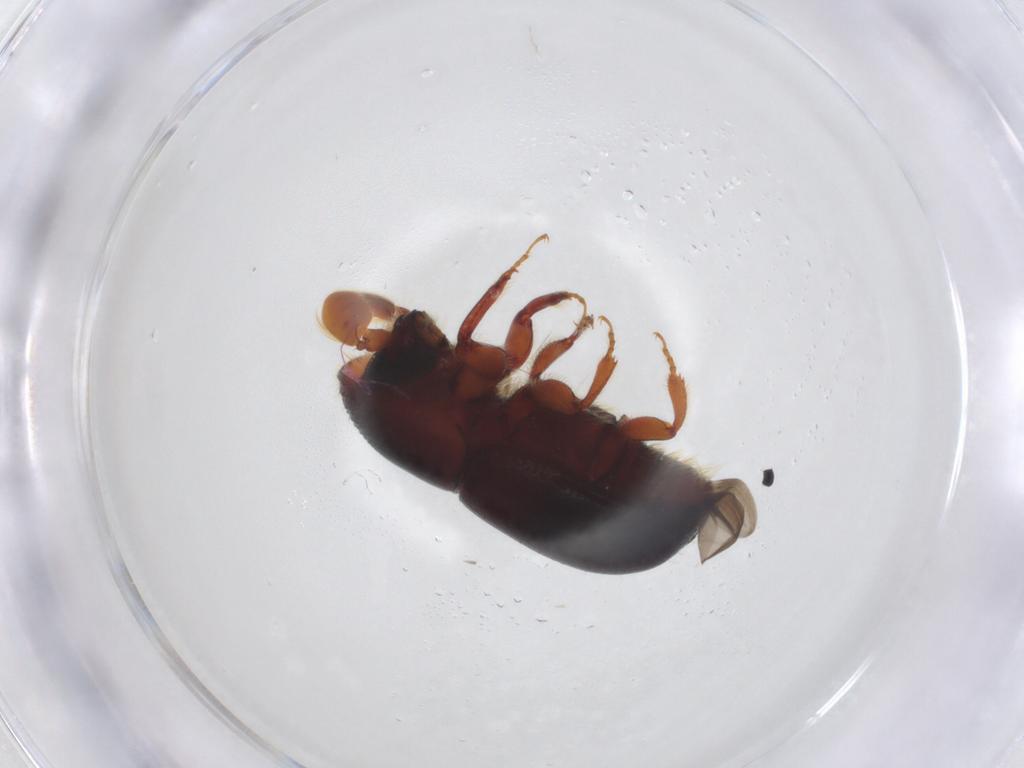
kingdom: Animalia
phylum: Arthropoda
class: Insecta
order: Coleoptera
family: Curculionidae
